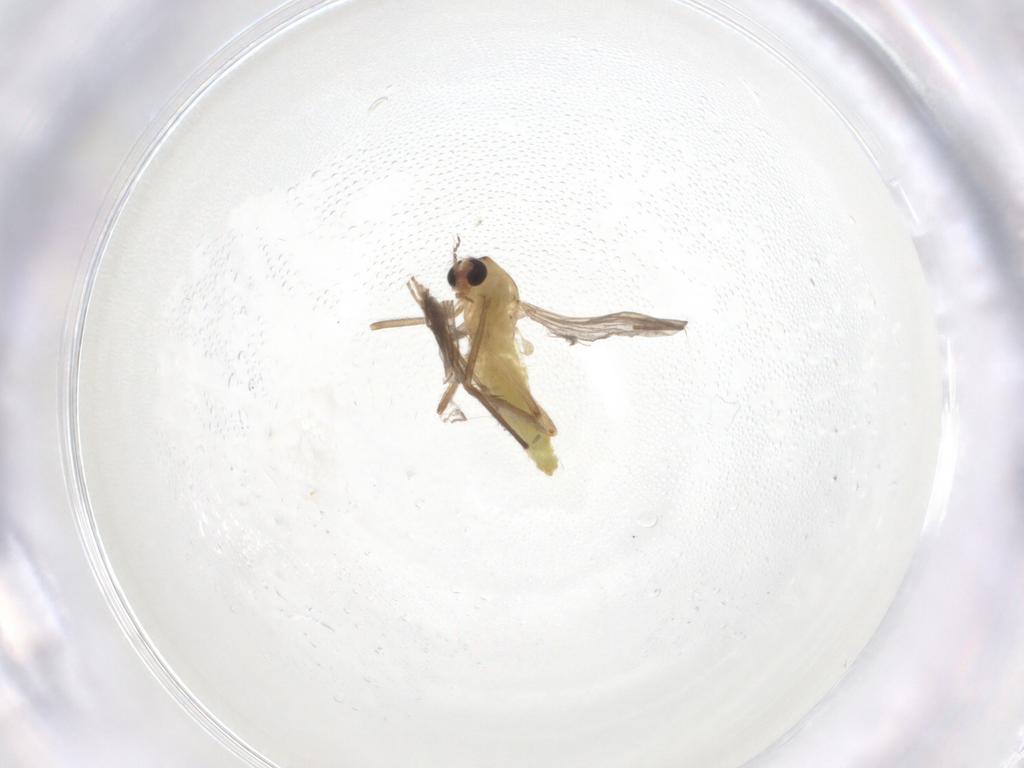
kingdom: Animalia
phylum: Arthropoda
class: Insecta
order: Diptera
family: Chironomidae
